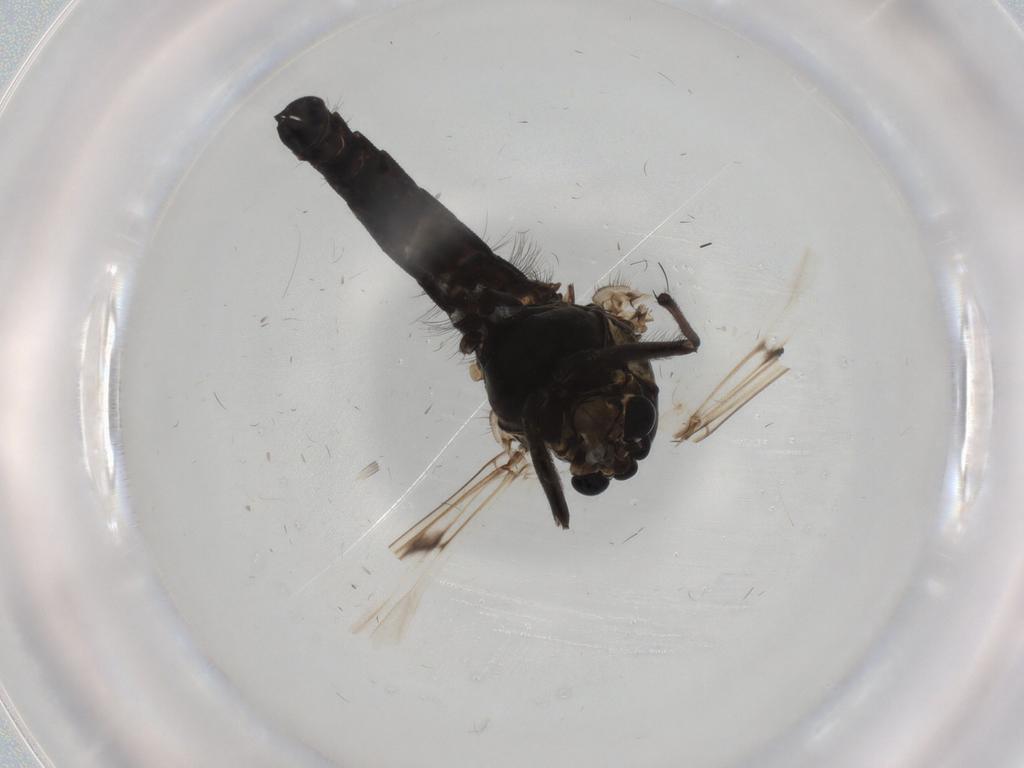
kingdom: Animalia
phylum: Arthropoda
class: Insecta
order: Diptera
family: Chironomidae
